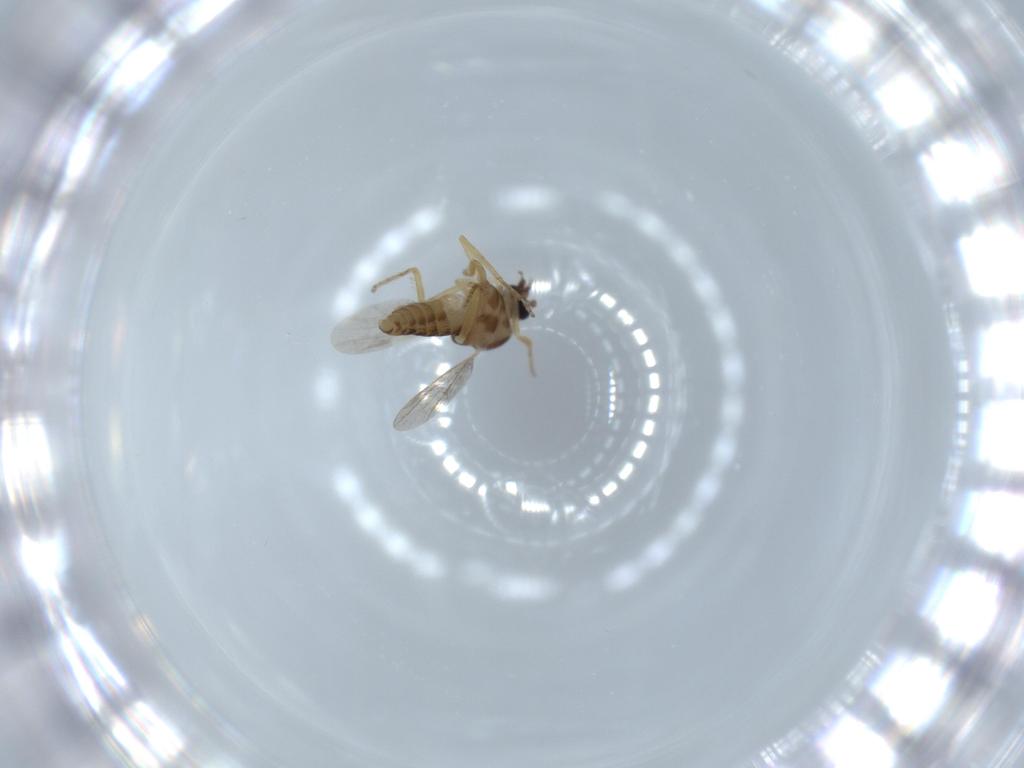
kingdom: Animalia
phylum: Arthropoda
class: Insecta
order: Diptera
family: Ceratopogonidae
